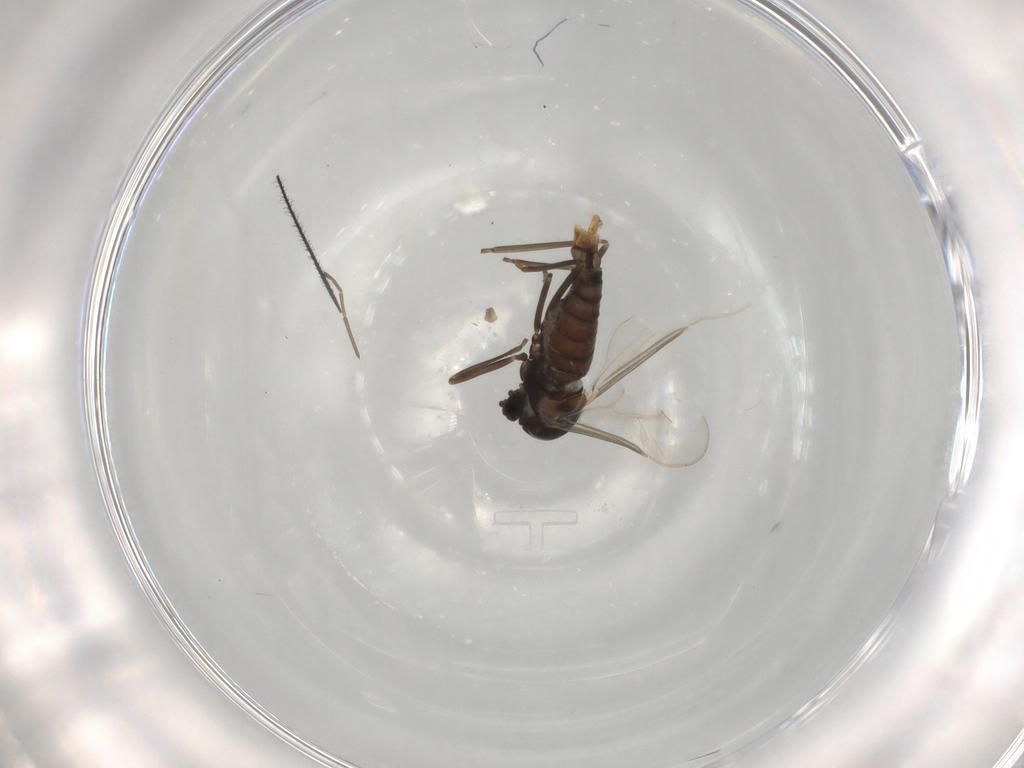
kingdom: Animalia
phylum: Arthropoda
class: Insecta
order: Diptera
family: Cecidomyiidae
